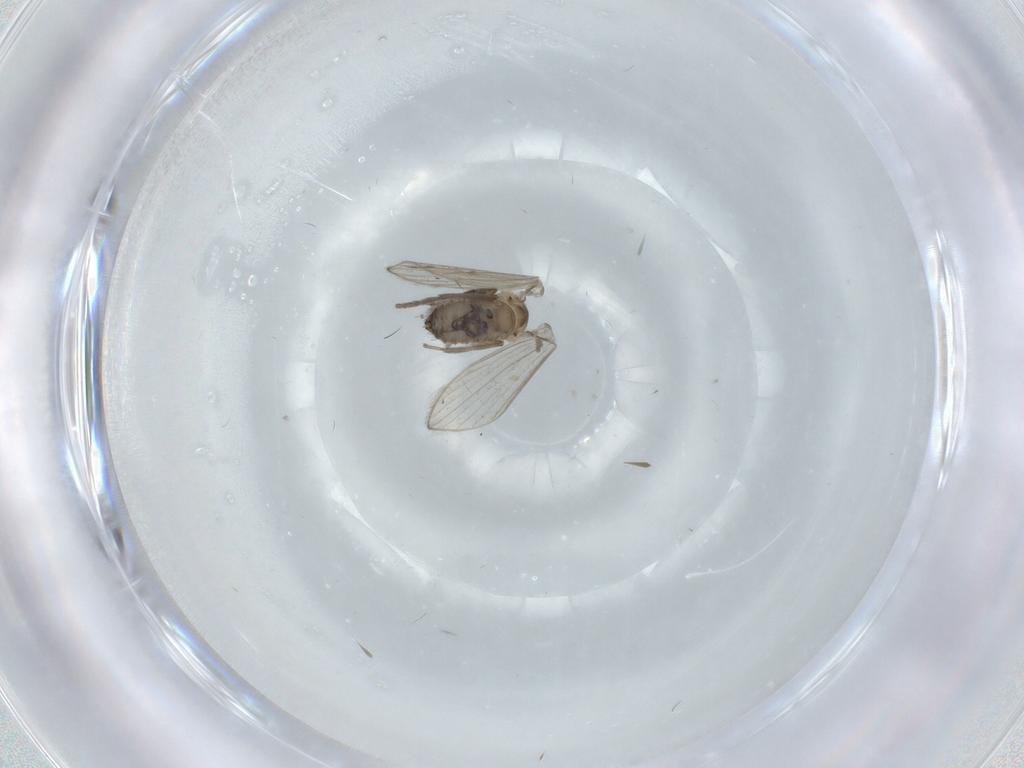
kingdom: Animalia
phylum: Arthropoda
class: Insecta
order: Diptera
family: Psychodidae
